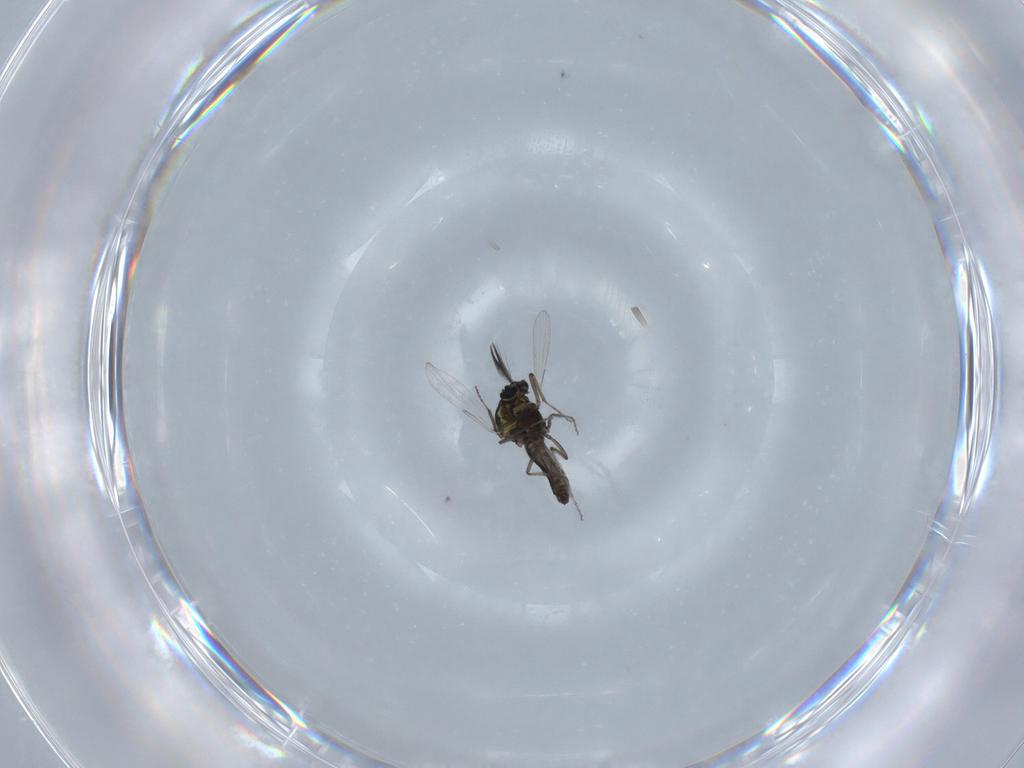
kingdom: Animalia
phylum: Arthropoda
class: Insecta
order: Diptera
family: Ceratopogonidae
